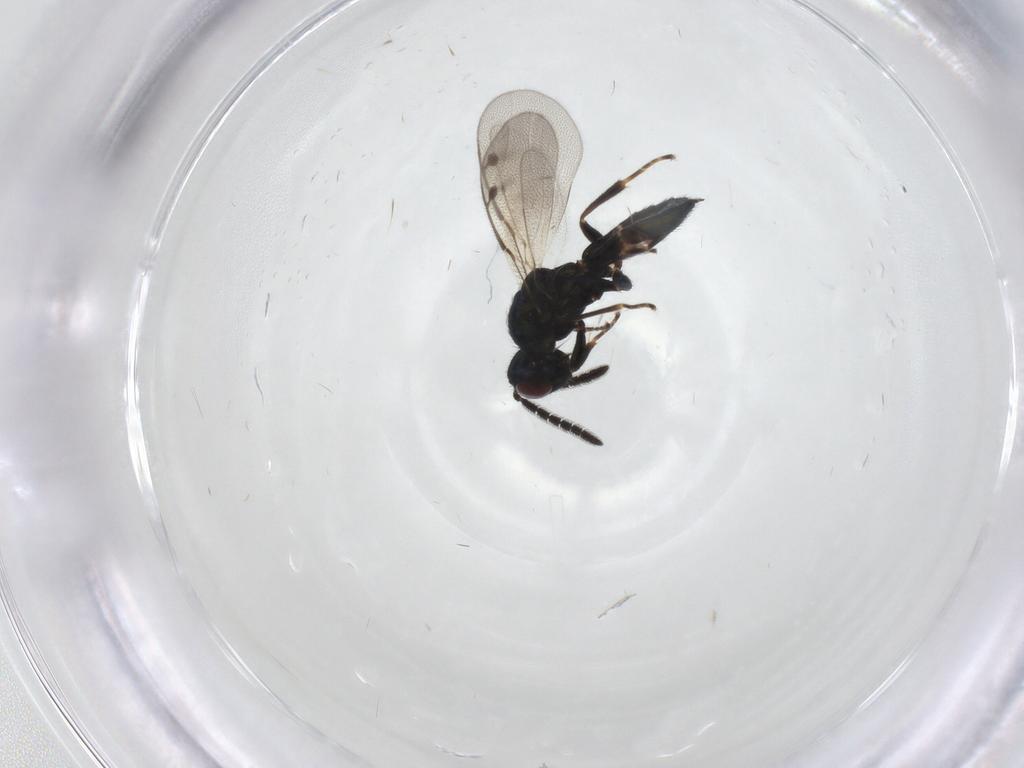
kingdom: Animalia
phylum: Arthropoda
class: Insecta
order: Hymenoptera
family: Pteromalidae
